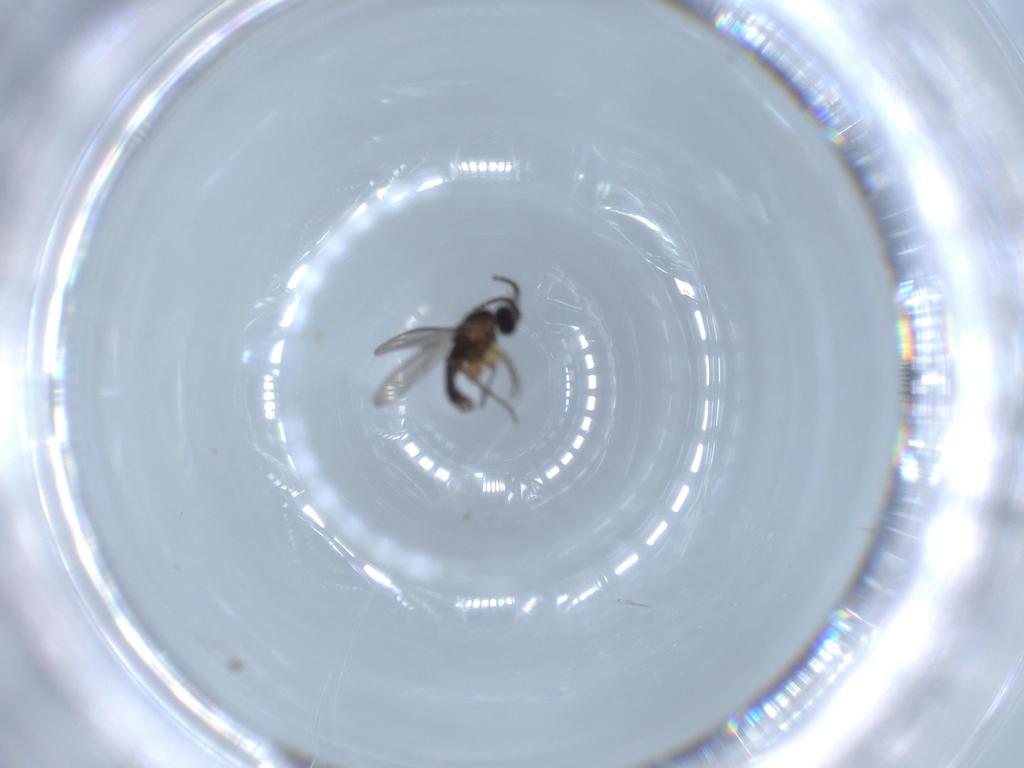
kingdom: Animalia
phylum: Arthropoda
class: Insecta
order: Diptera
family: Sciaridae
